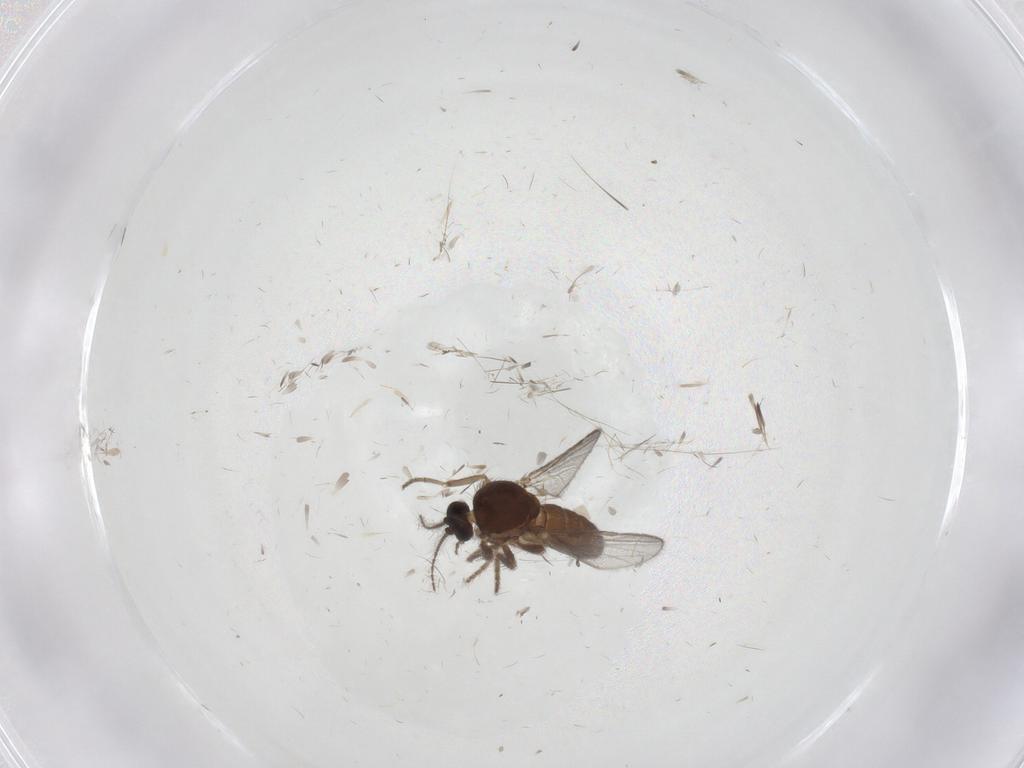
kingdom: Animalia
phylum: Arthropoda
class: Insecta
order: Diptera
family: Ceratopogonidae
